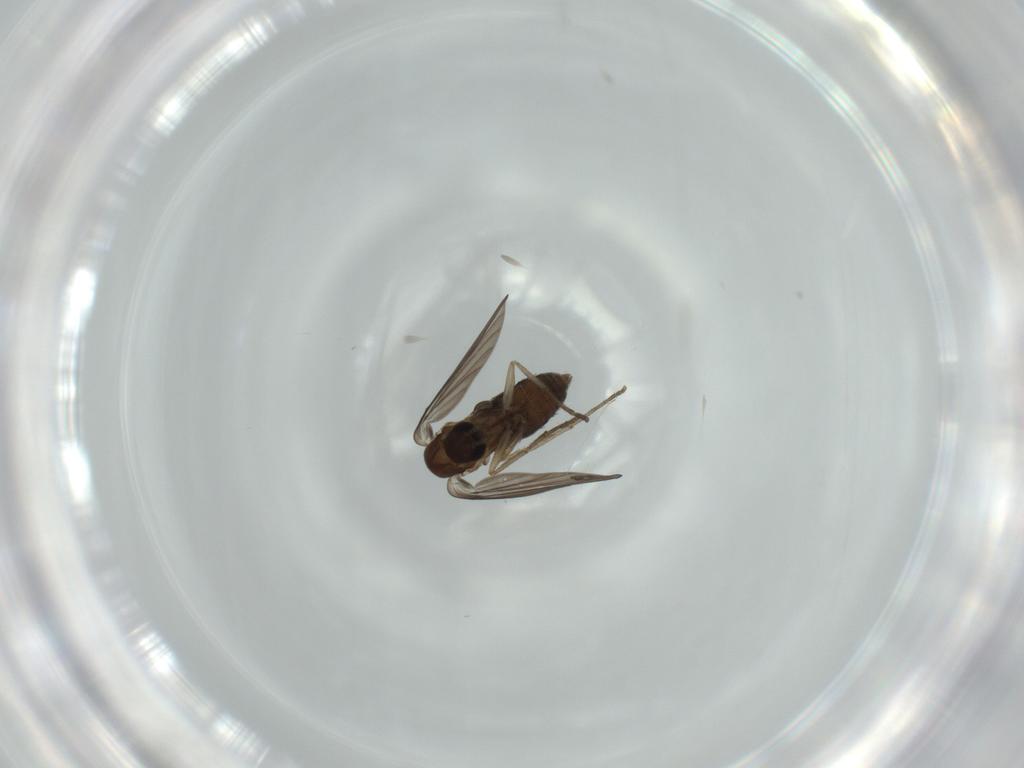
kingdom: Animalia
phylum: Arthropoda
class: Insecta
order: Diptera
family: Psychodidae
